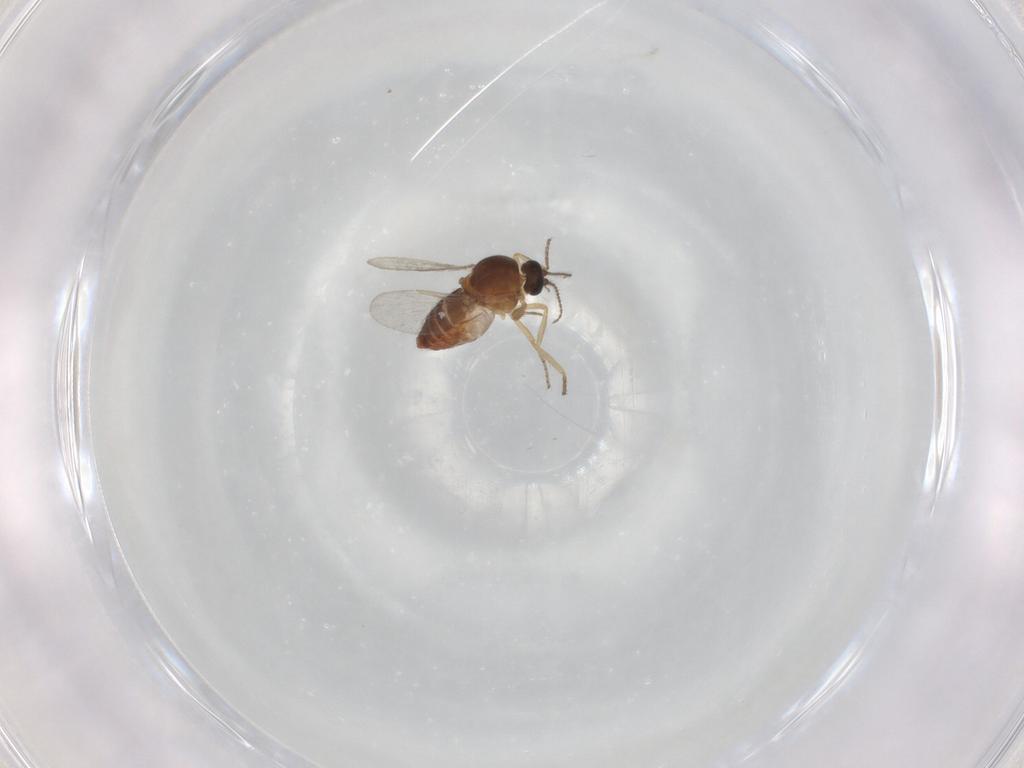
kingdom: Animalia
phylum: Arthropoda
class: Insecta
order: Diptera
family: Ceratopogonidae
